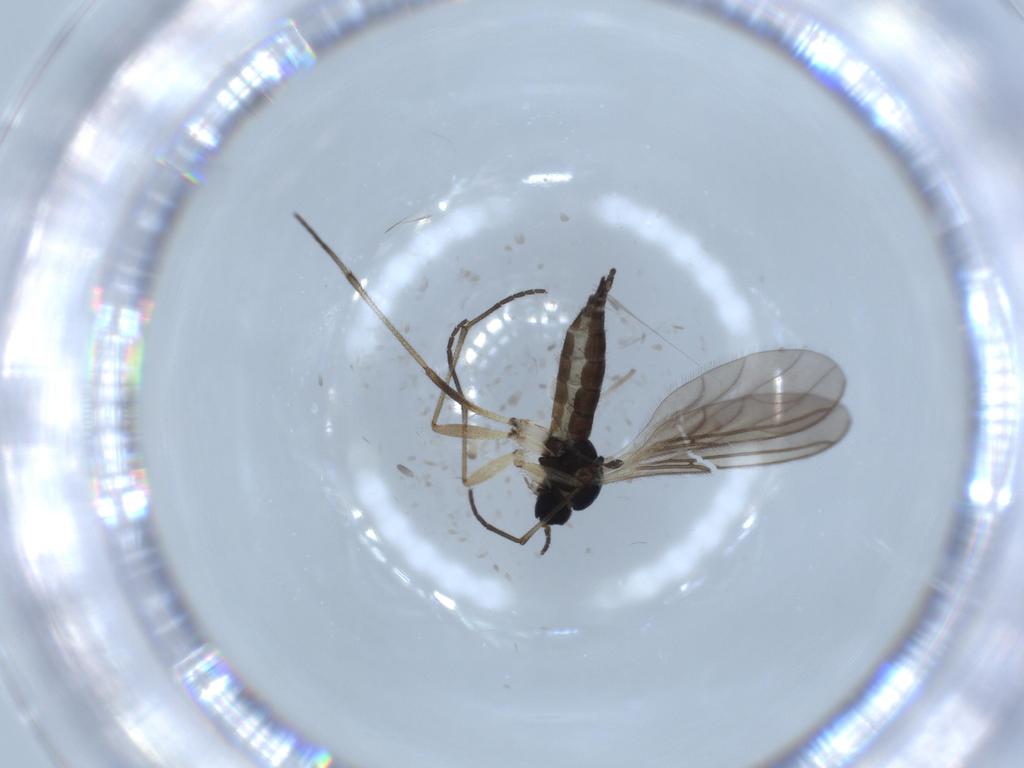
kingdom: Animalia
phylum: Arthropoda
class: Insecta
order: Diptera
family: Sciaridae
